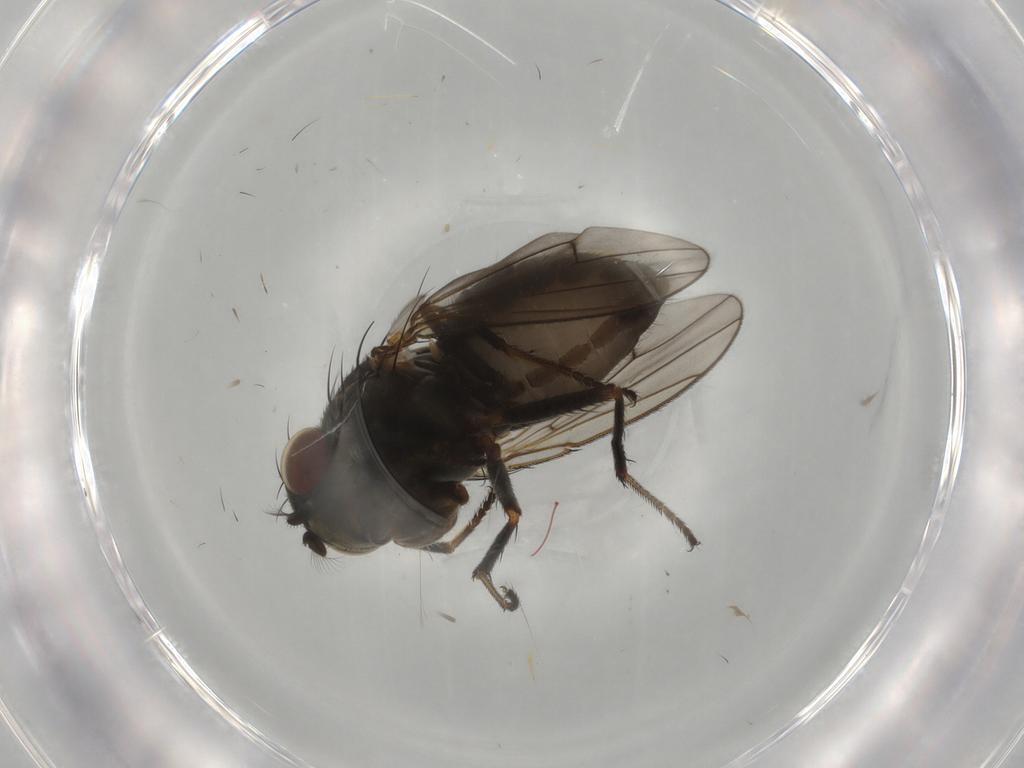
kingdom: Animalia
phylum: Arthropoda
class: Insecta
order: Diptera
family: Ephydridae
